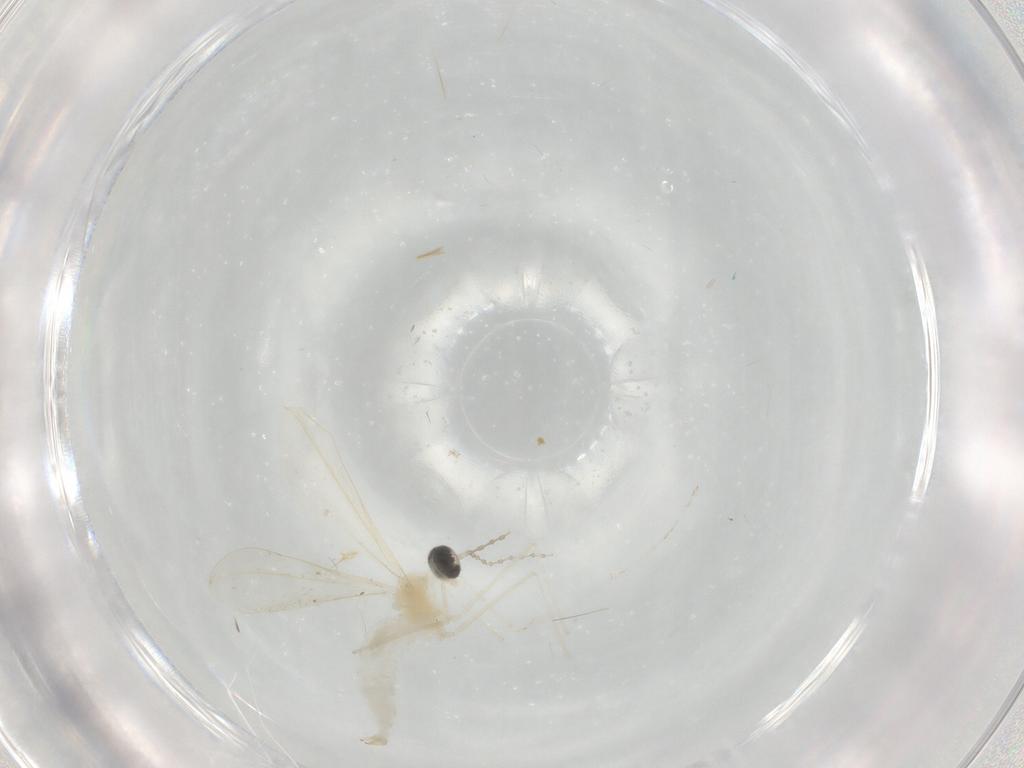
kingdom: Animalia
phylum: Arthropoda
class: Insecta
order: Diptera
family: Cecidomyiidae
